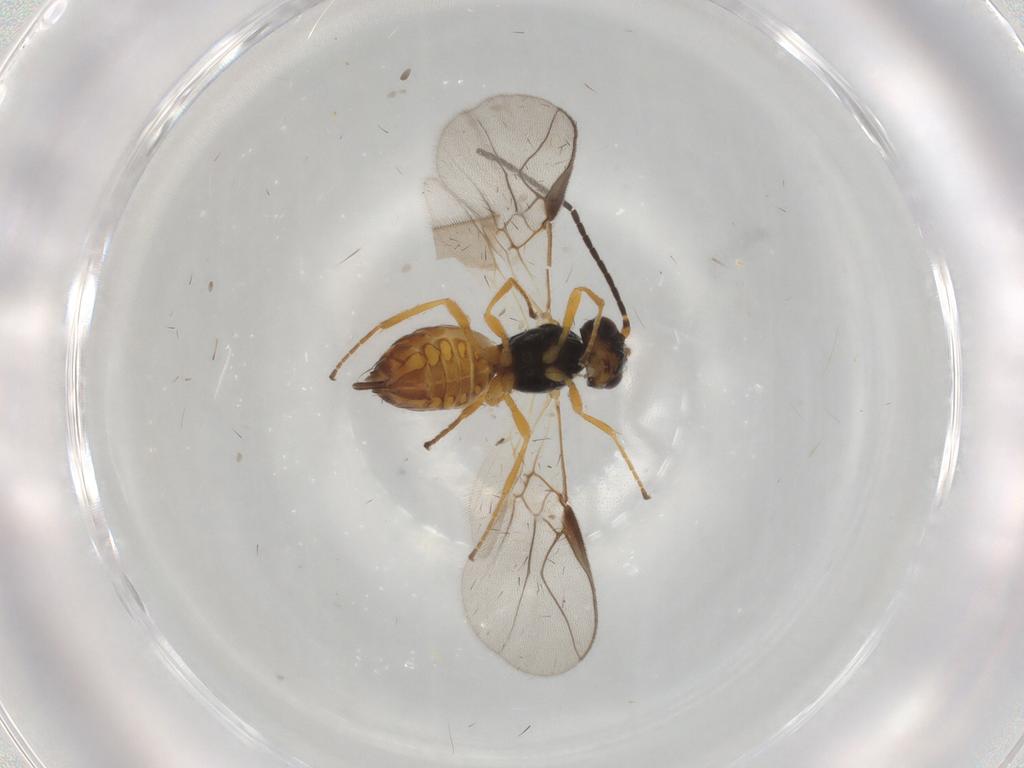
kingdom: Animalia
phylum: Arthropoda
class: Insecta
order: Hymenoptera
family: Braconidae
